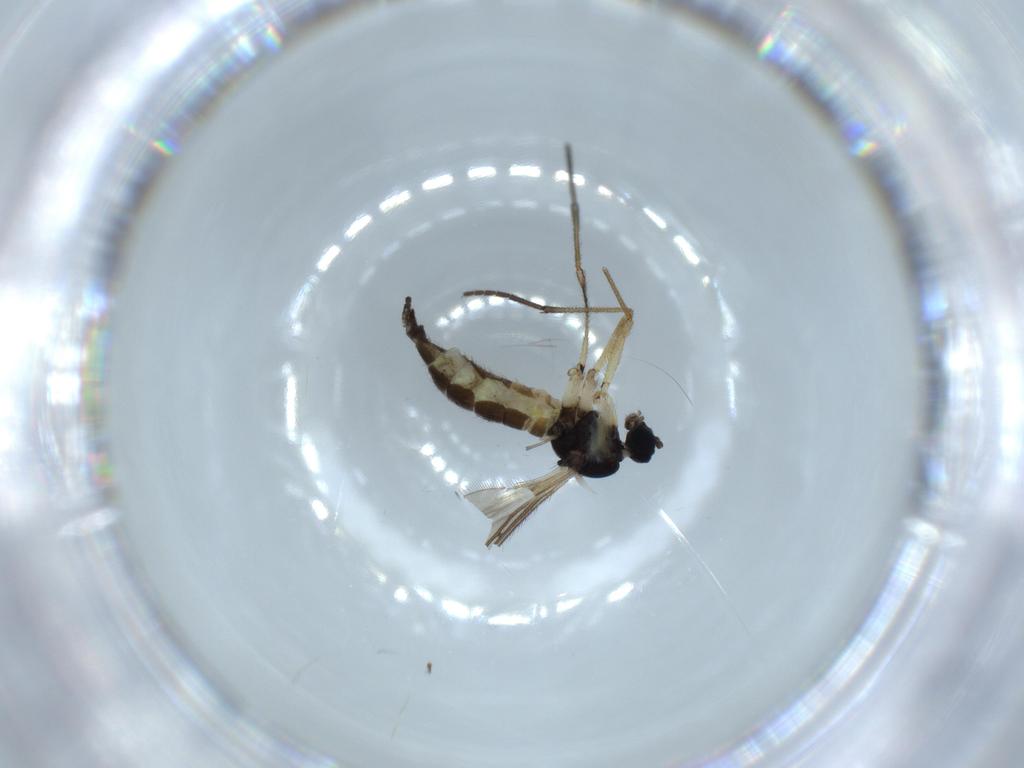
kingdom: Animalia
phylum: Arthropoda
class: Insecta
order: Diptera
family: Sciaridae
